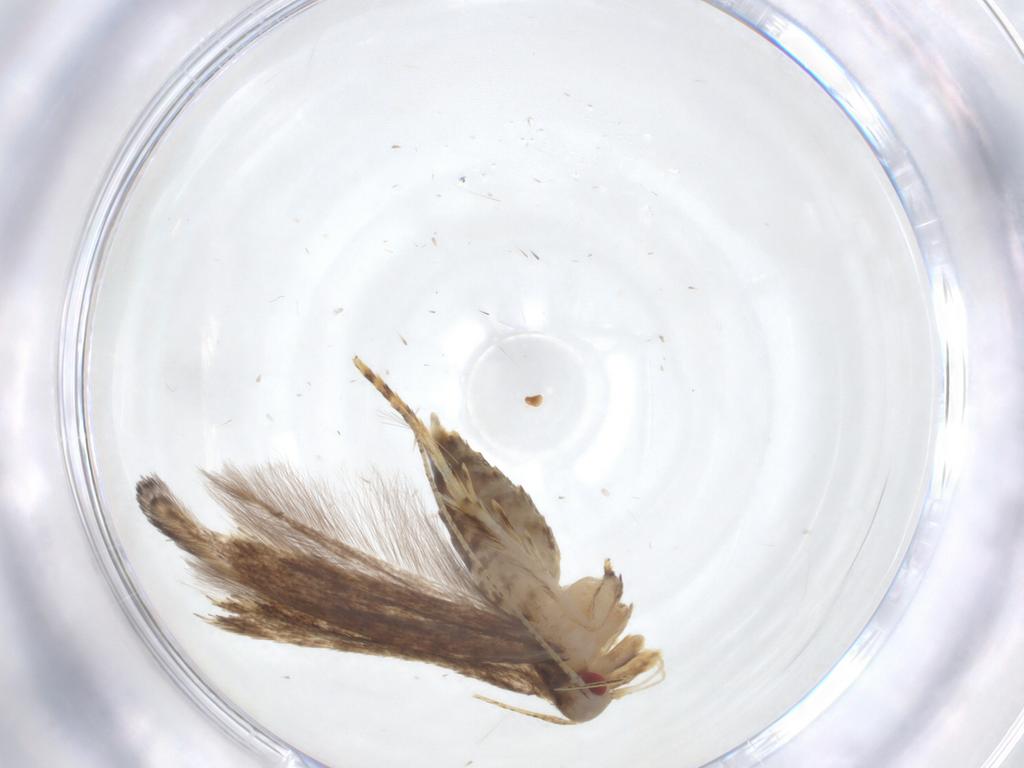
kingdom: Animalia
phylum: Arthropoda
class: Insecta
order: Lepidoptera
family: Cosmopterigidae
